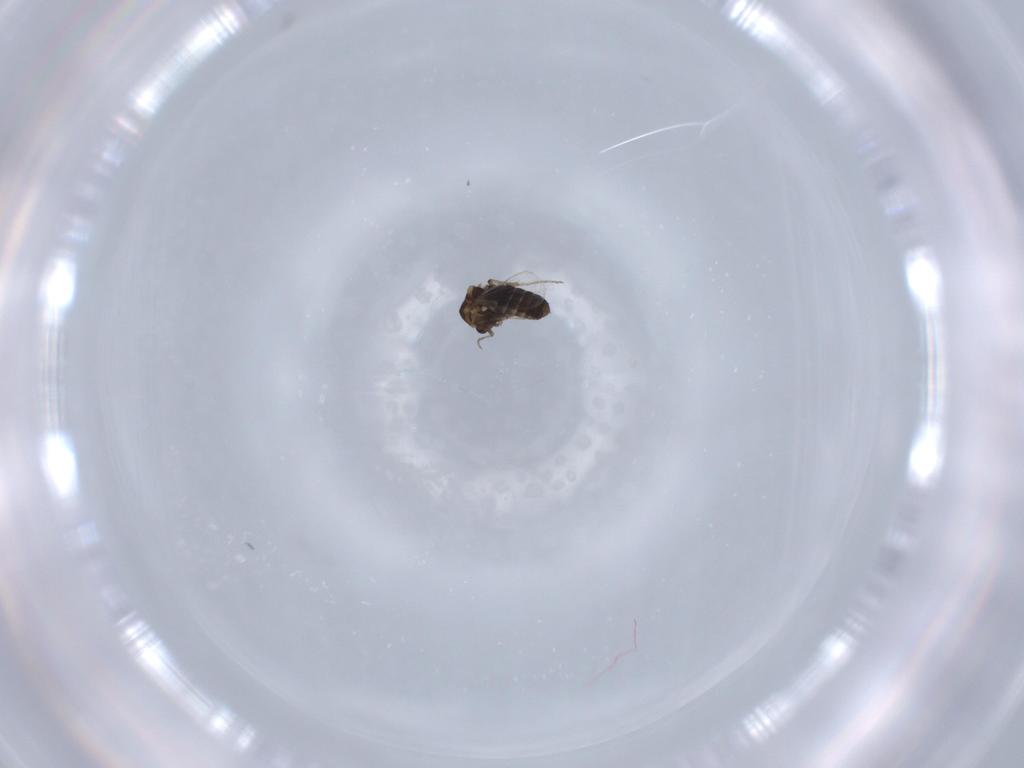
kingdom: Animalia
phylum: Arthropoda
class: Insecta
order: Diptera
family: Ceratopogonidae
